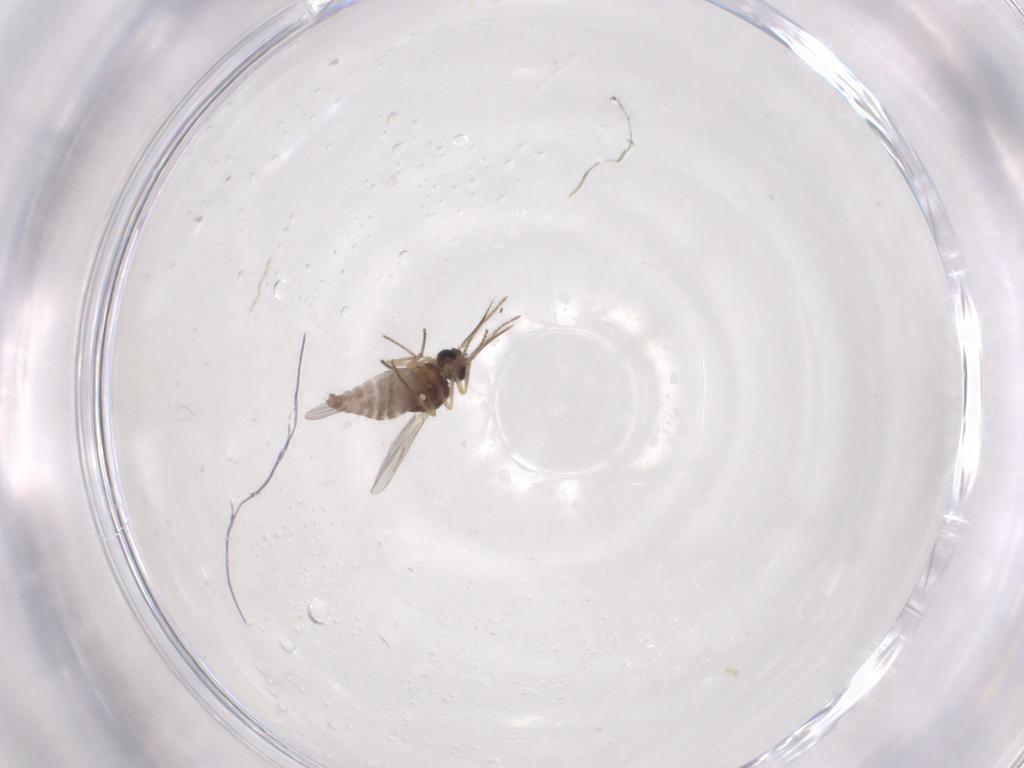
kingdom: Animalia
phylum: Arthropoda
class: Insecta
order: Diptera
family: Ceratopogonidae
